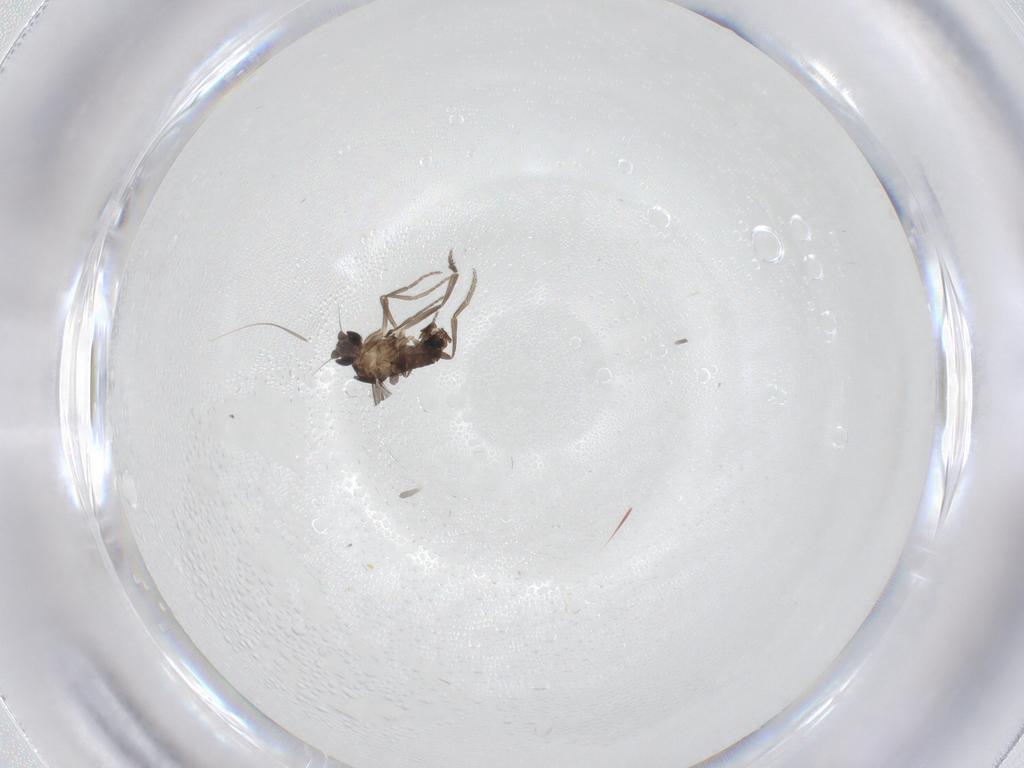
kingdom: Animalia
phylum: Arthropoda
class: Insecta
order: Diptera
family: Phoridae
